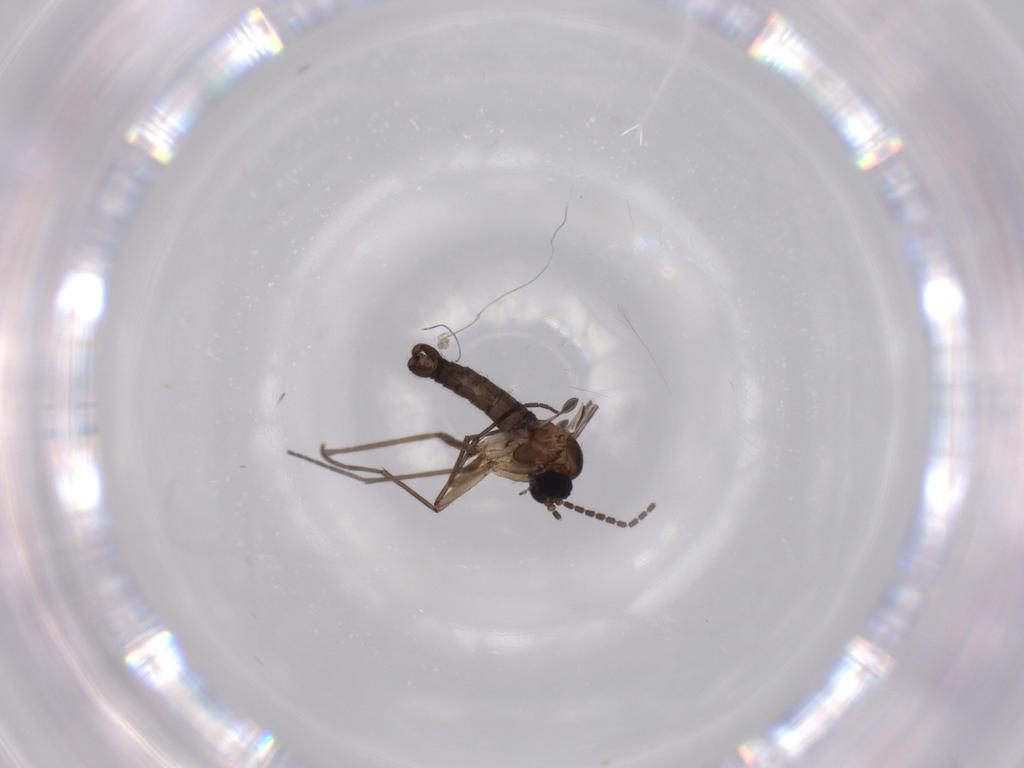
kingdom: Animalia
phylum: Arthropoda
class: Insecta
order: Diptera
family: Sciaridae
